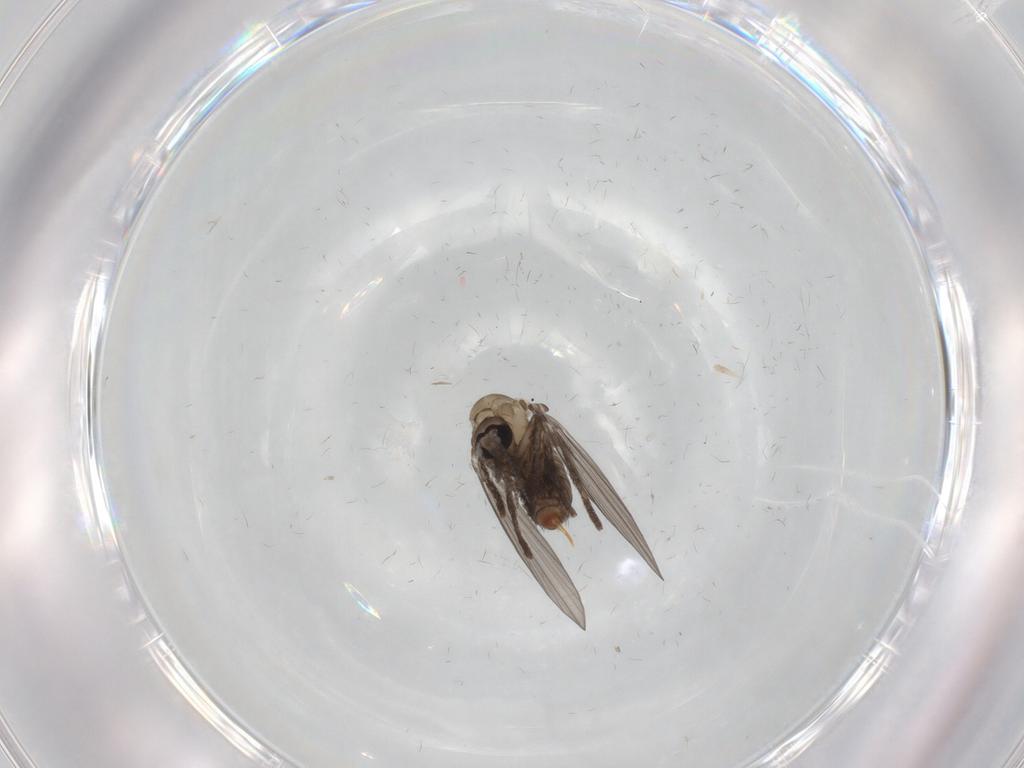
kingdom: Animalia
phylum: Arthropoda
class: Insecta
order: Diptera
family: Psychodidae
